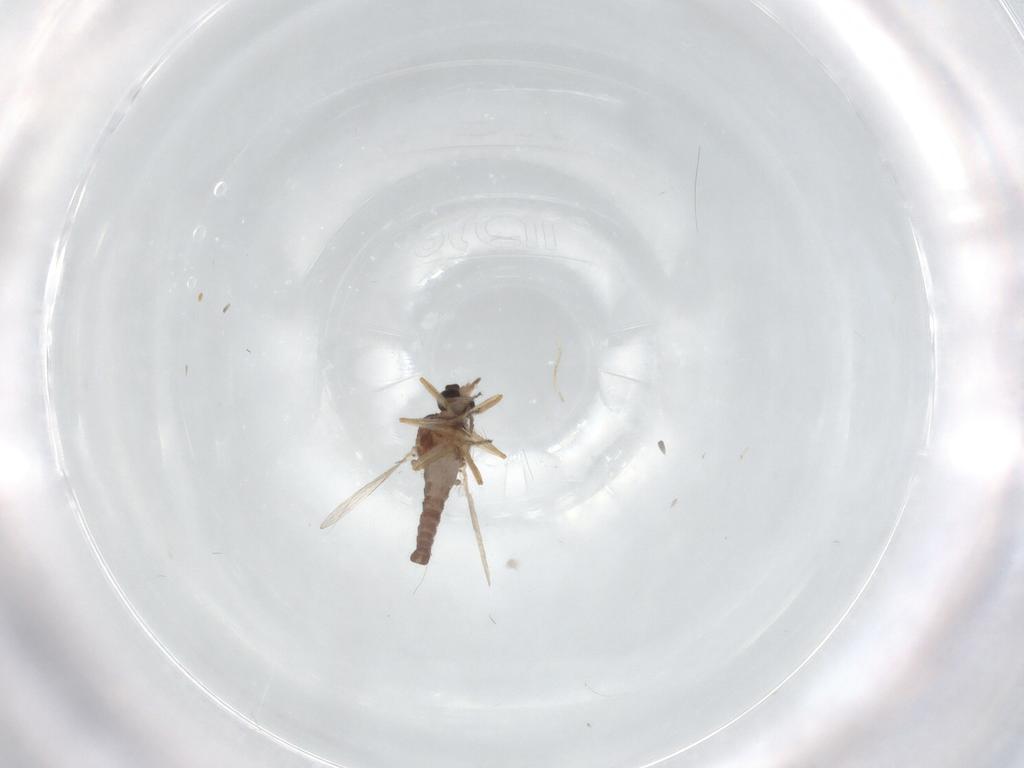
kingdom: Animalia
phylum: Arthropoda
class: Insecta
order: Diptera
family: Ceratopogonidae
